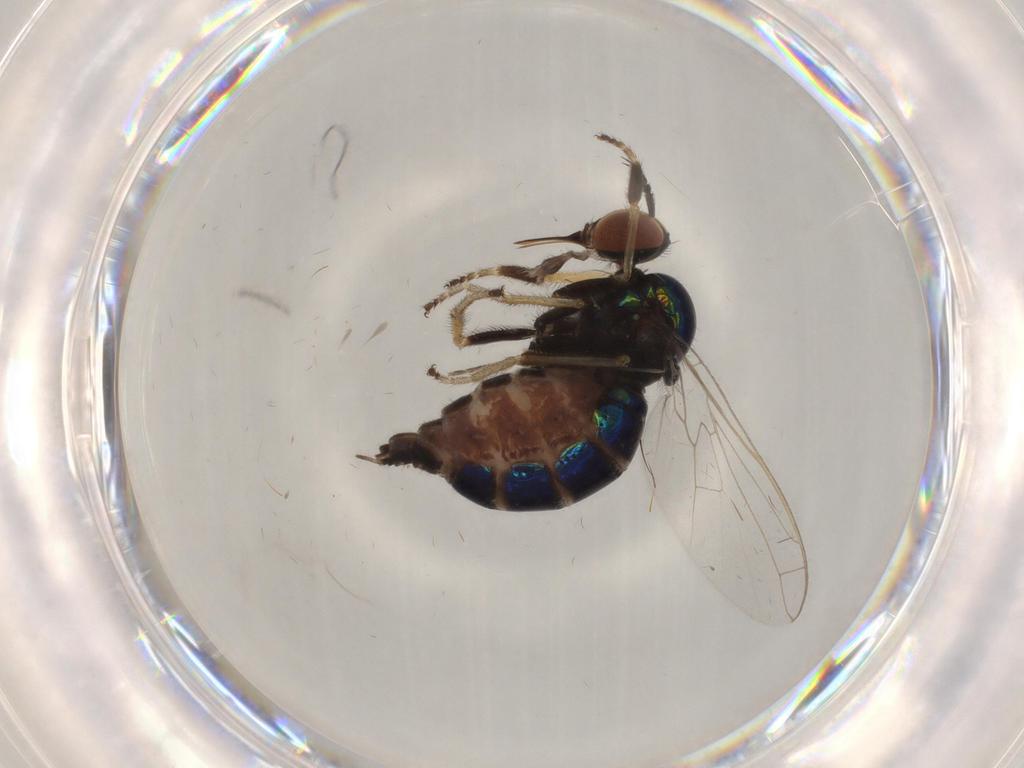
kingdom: Animalia
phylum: Arthropoda
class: Insecta
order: Diptera
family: Empididae
